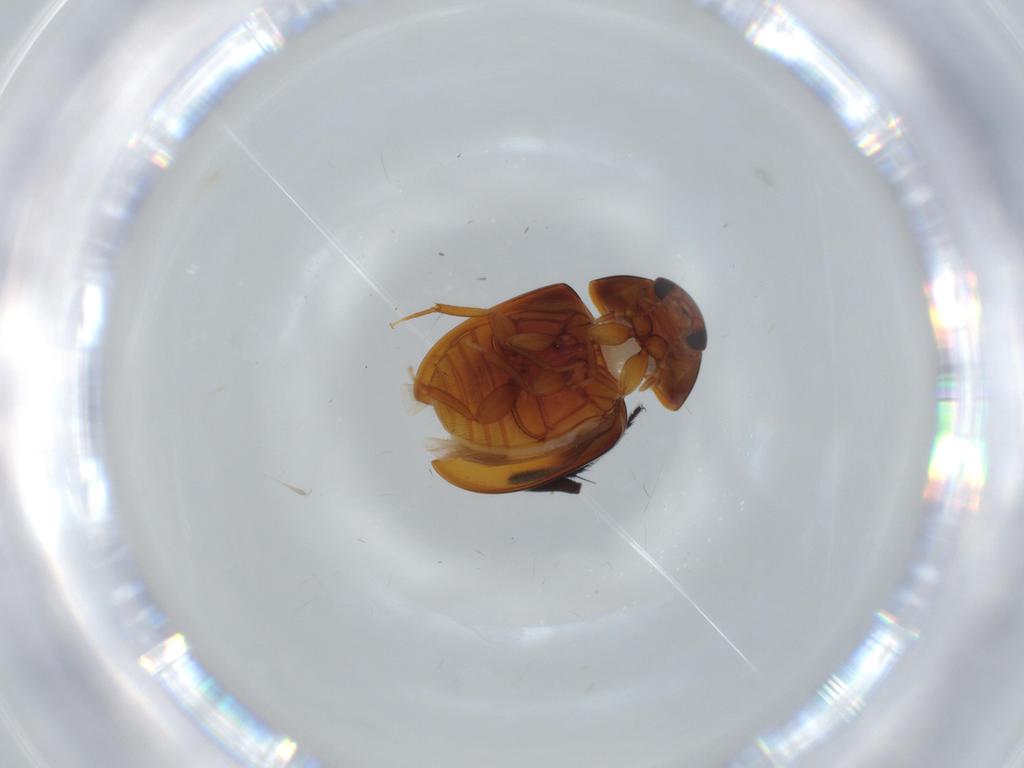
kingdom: Animalia
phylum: Arthropoda
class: Insecta
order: Coleoptera
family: Phalacridae
